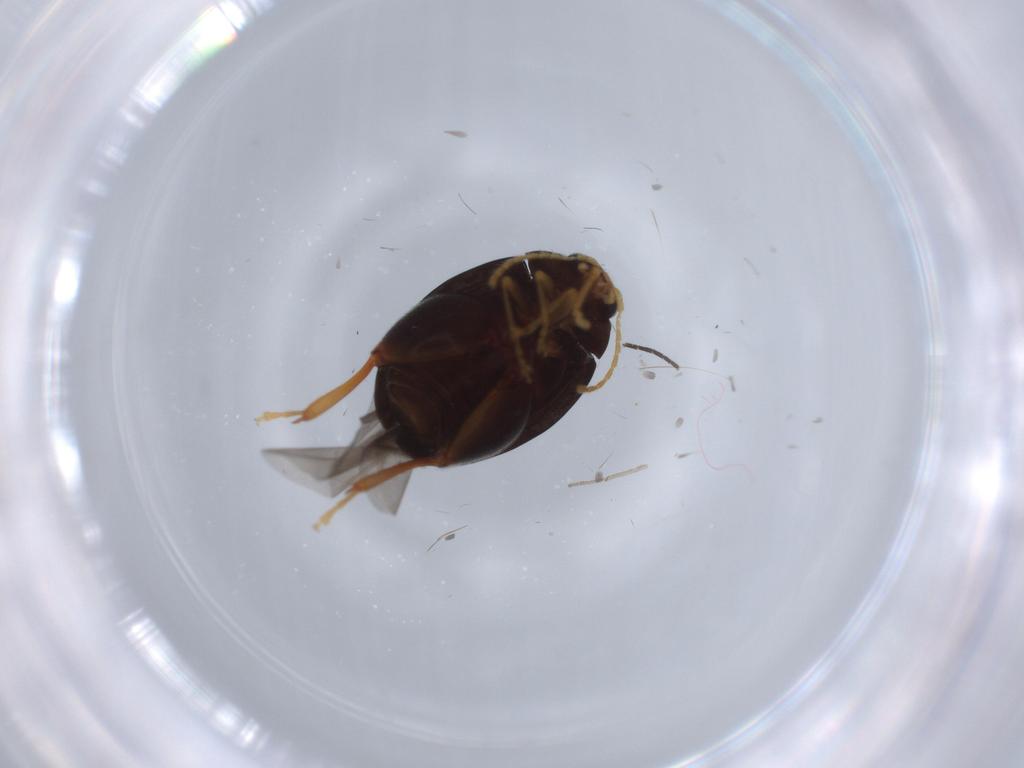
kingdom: Animalia
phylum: Arthropoda
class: Insecta
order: Coleoptera
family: Chrysomelidae
